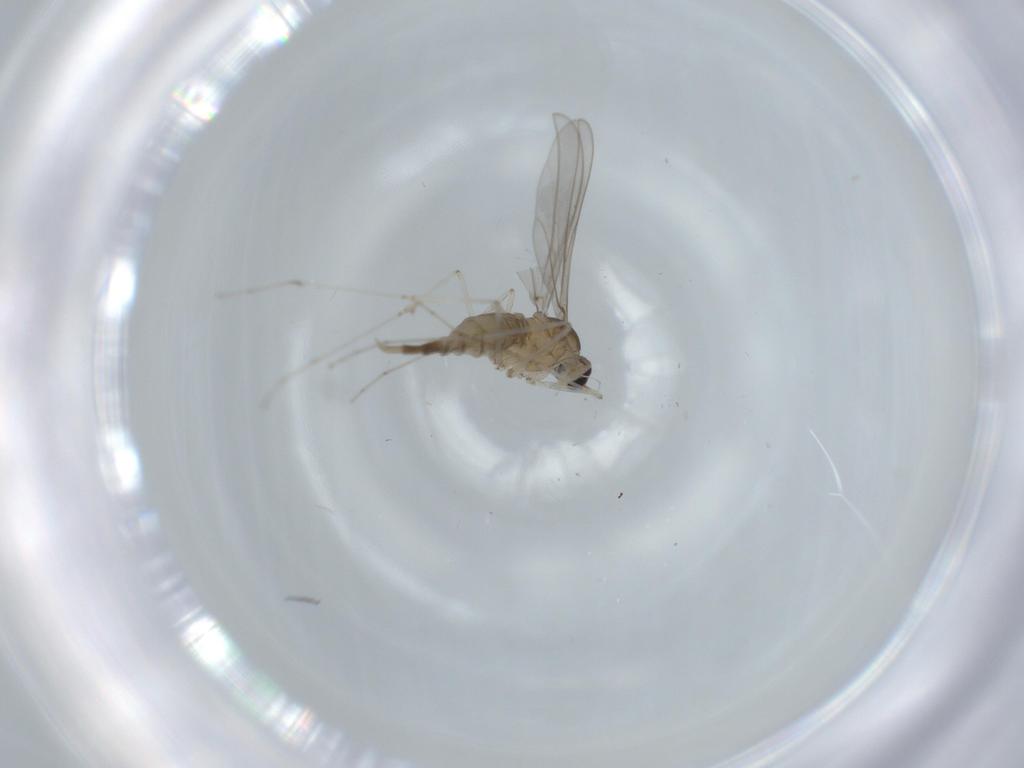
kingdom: Animalia
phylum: Arthropoda
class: Insecta
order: Diptera
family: Cecidomyiidae
